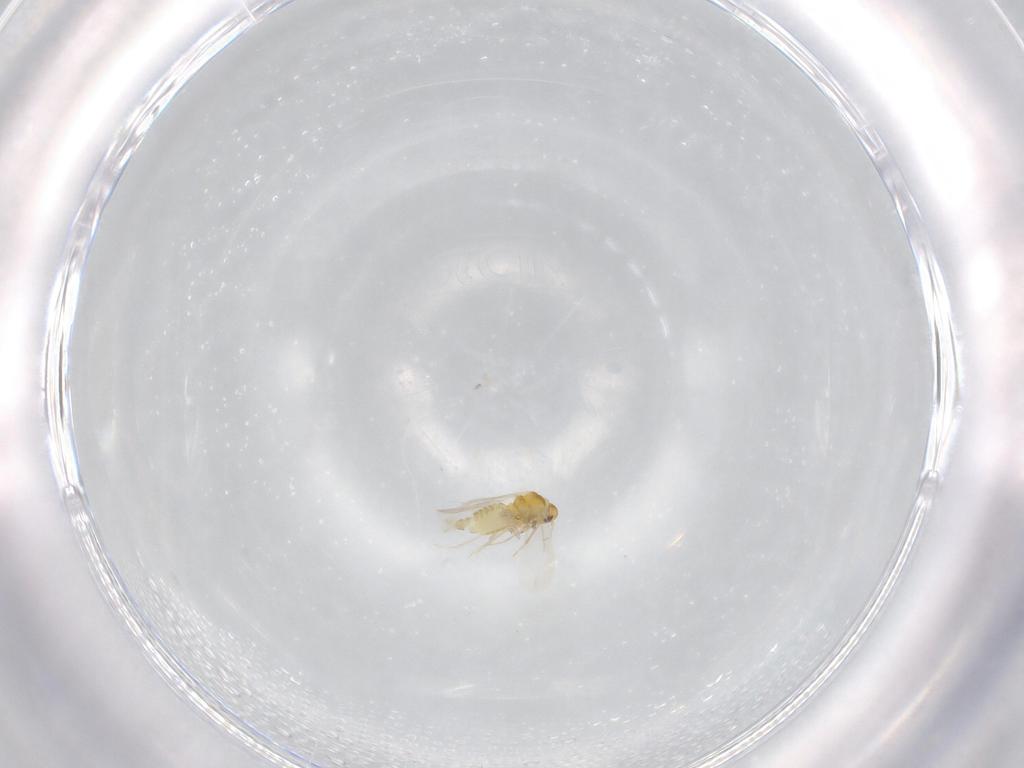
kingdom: Animalia
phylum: Arthropoda
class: Insecta
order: Hemiptera
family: Aleyrodidae
